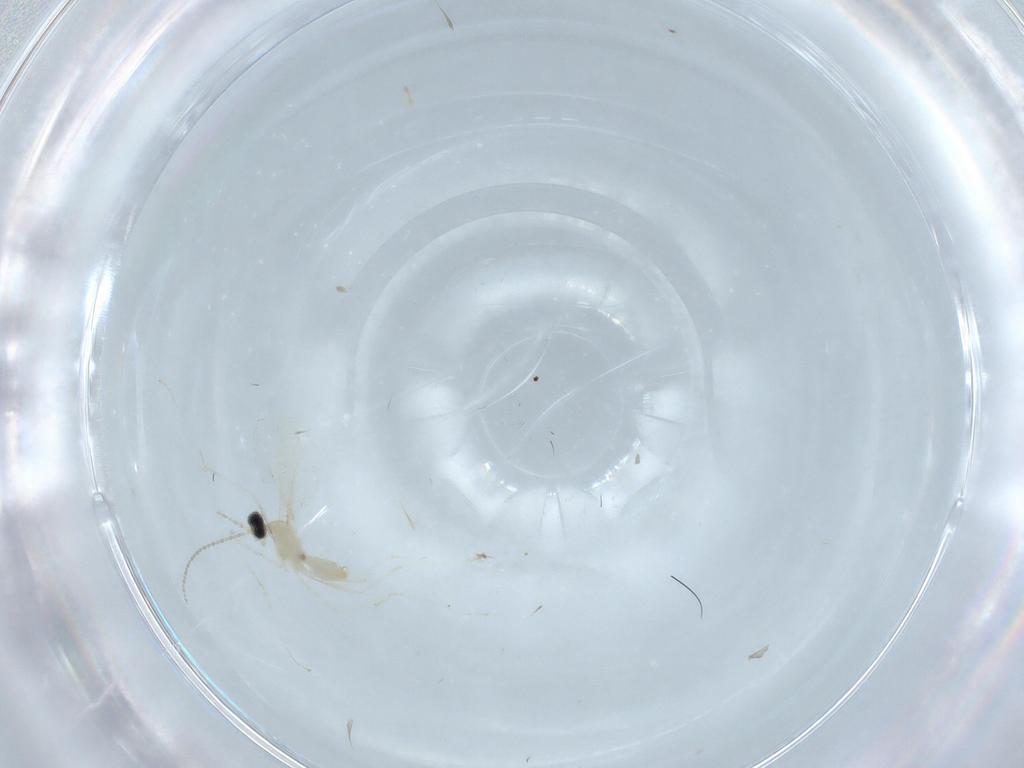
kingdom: Animalia
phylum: Arthropoda
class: Insecta
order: Diptera
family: Cecidomyiidae
